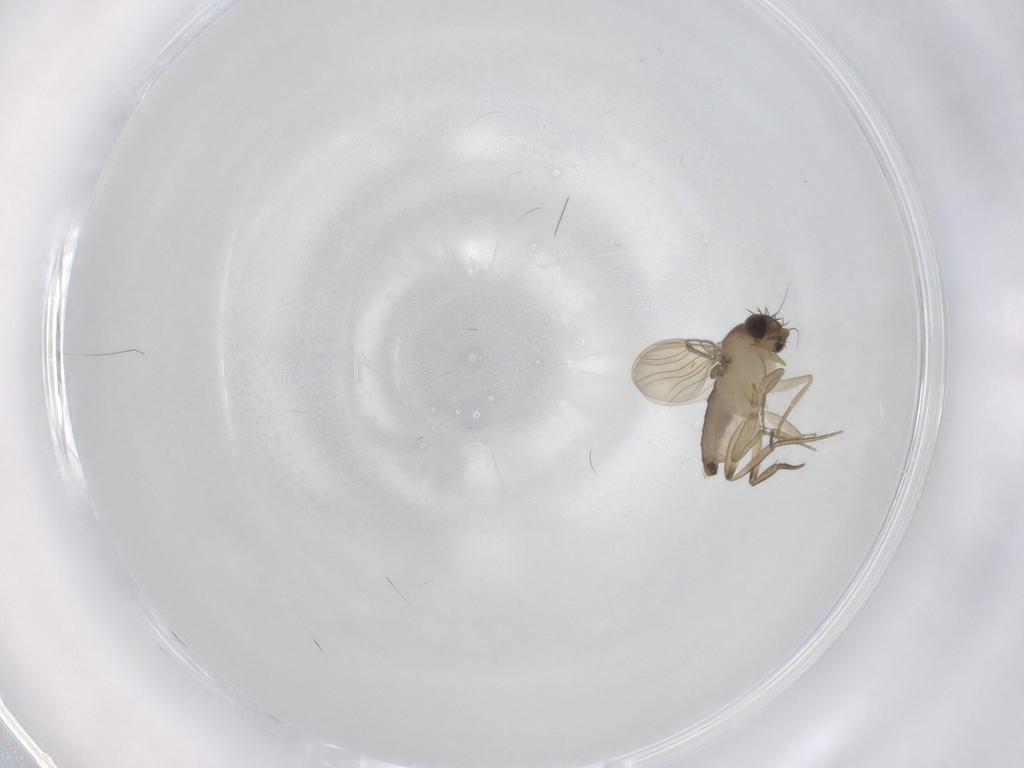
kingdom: Animalia
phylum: Arthropoda
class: Insecta
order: Diptera
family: Phoridae
